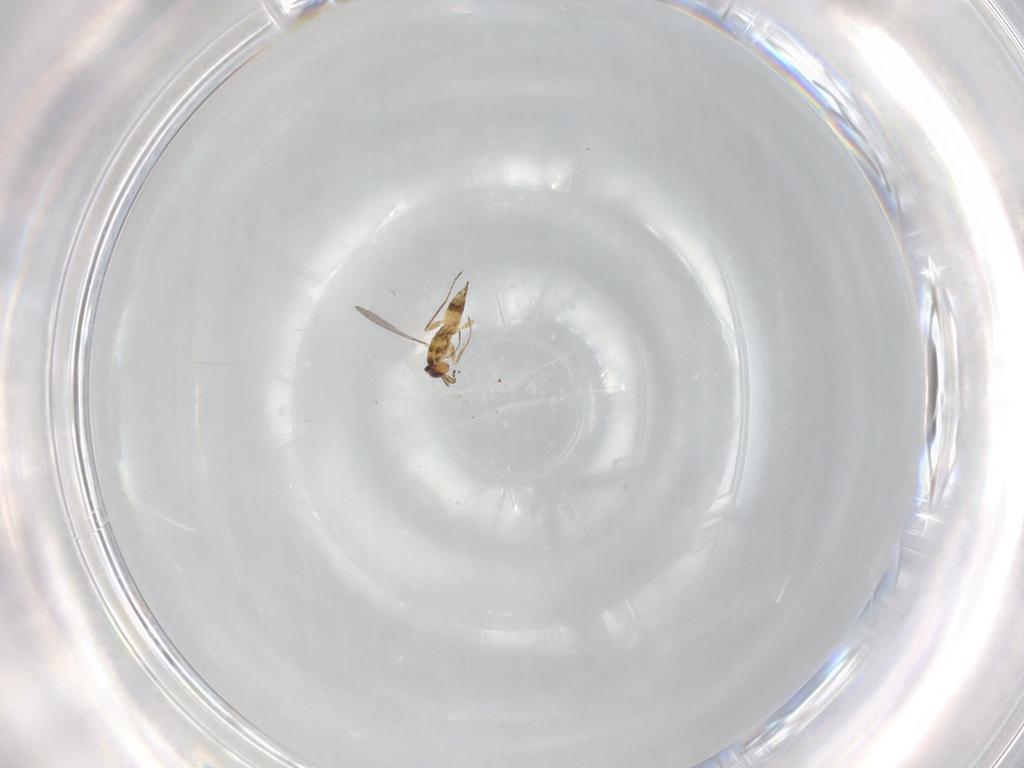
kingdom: Animalia
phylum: Arthropoda
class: Insecta
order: Hymenoptera
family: Mymaridae
